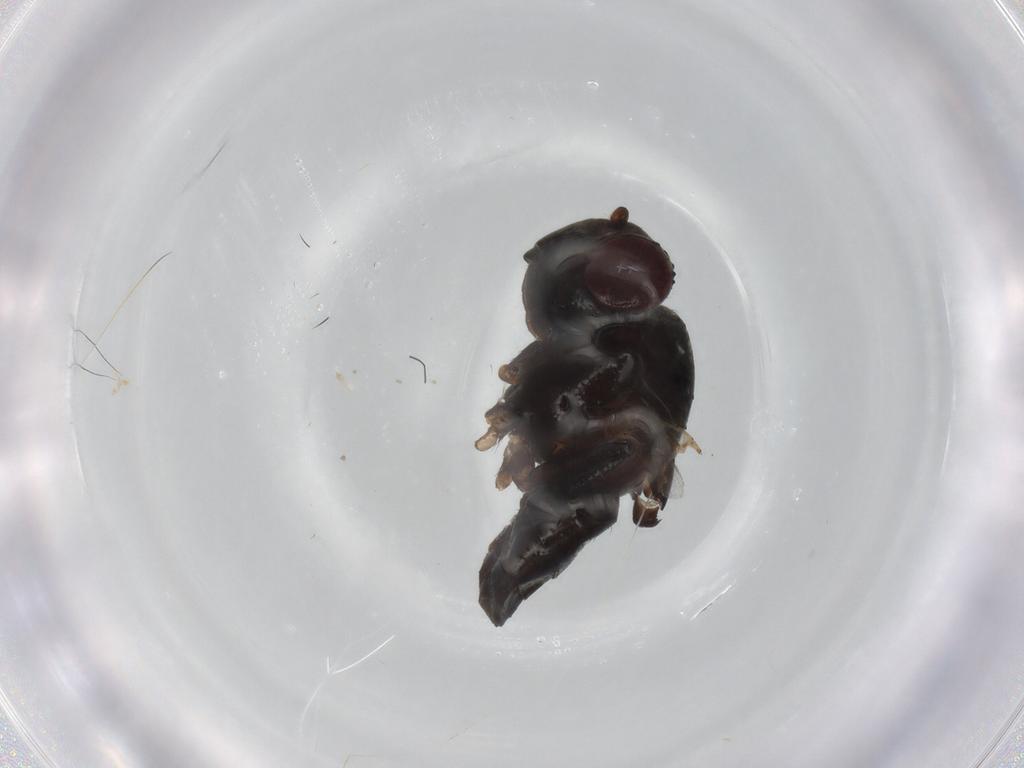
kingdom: Animalia
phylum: Arthropoda
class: Insecta
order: Diptera
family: Ephydridae
